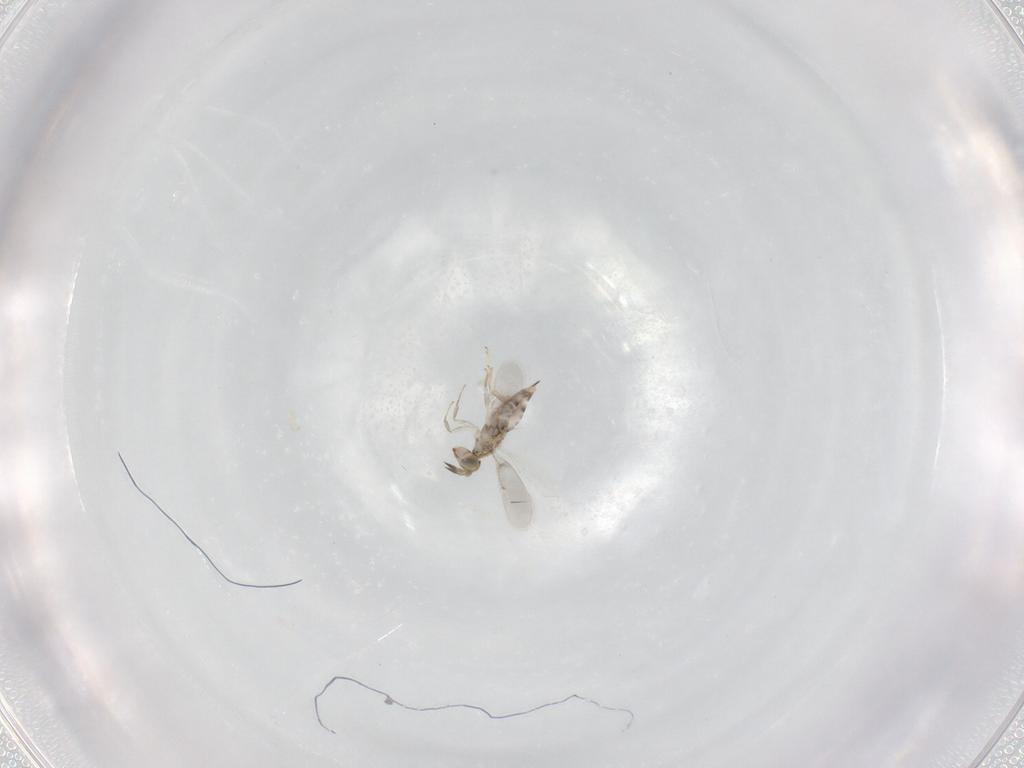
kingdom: Animalia
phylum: Arthropoda
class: Insecta
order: Hymenoptera
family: Aphelinidae
